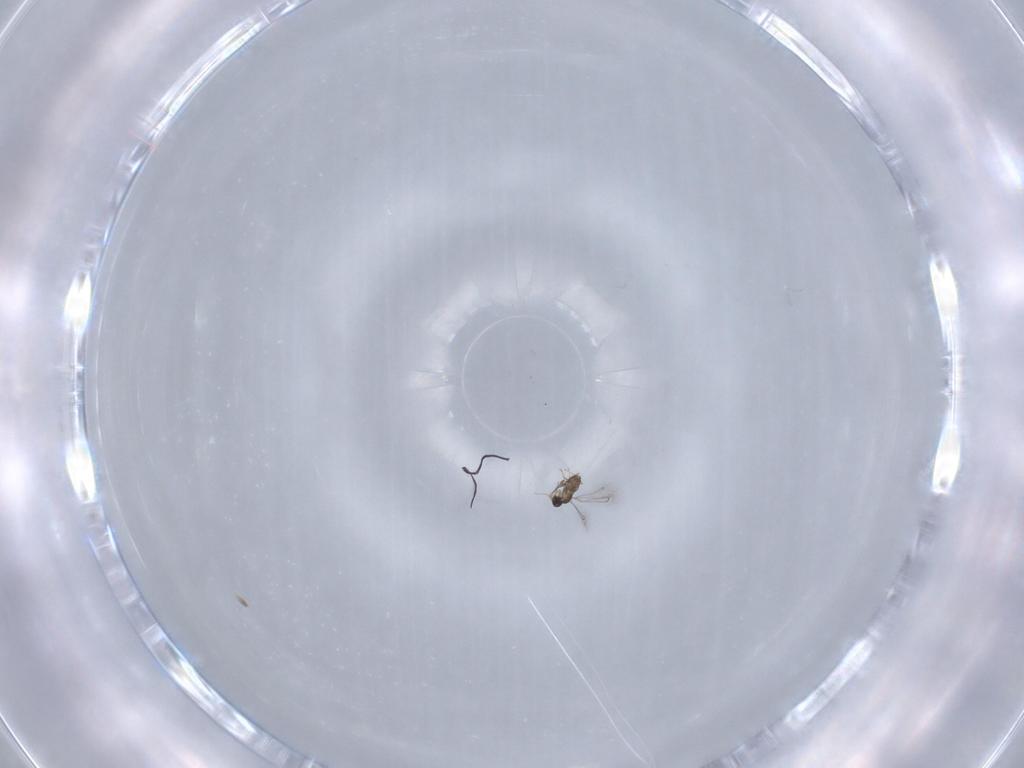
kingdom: Animalia
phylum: Arthropoda
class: Insecta
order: Hymenoptera
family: Mymaridae
